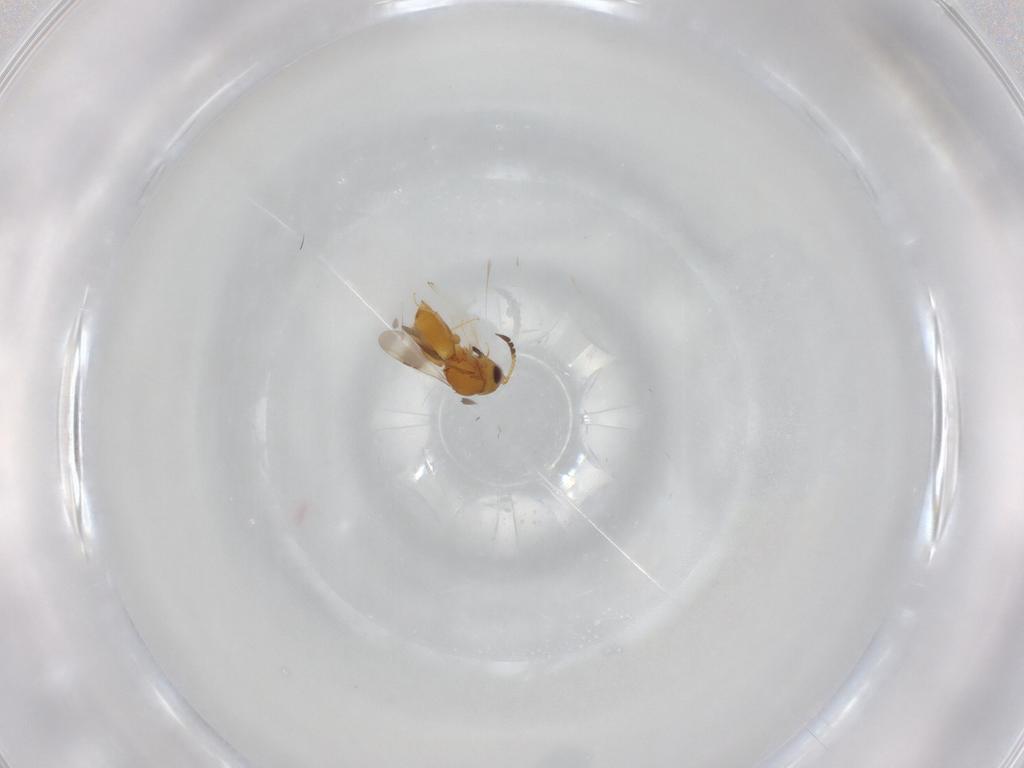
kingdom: Animalia
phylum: Arthropoda
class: Insecta
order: Hymenoptera
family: Ceraphronidae
